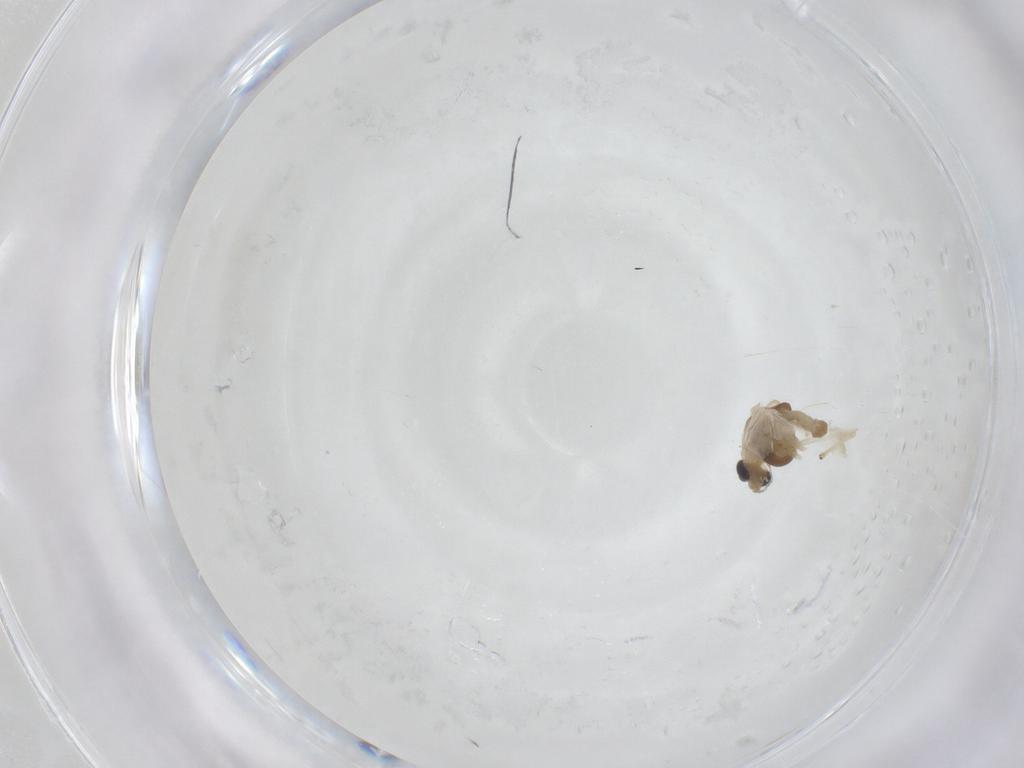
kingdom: Animalia
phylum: Arthropoda
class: Insecta
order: Diptera
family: Chironomidae
